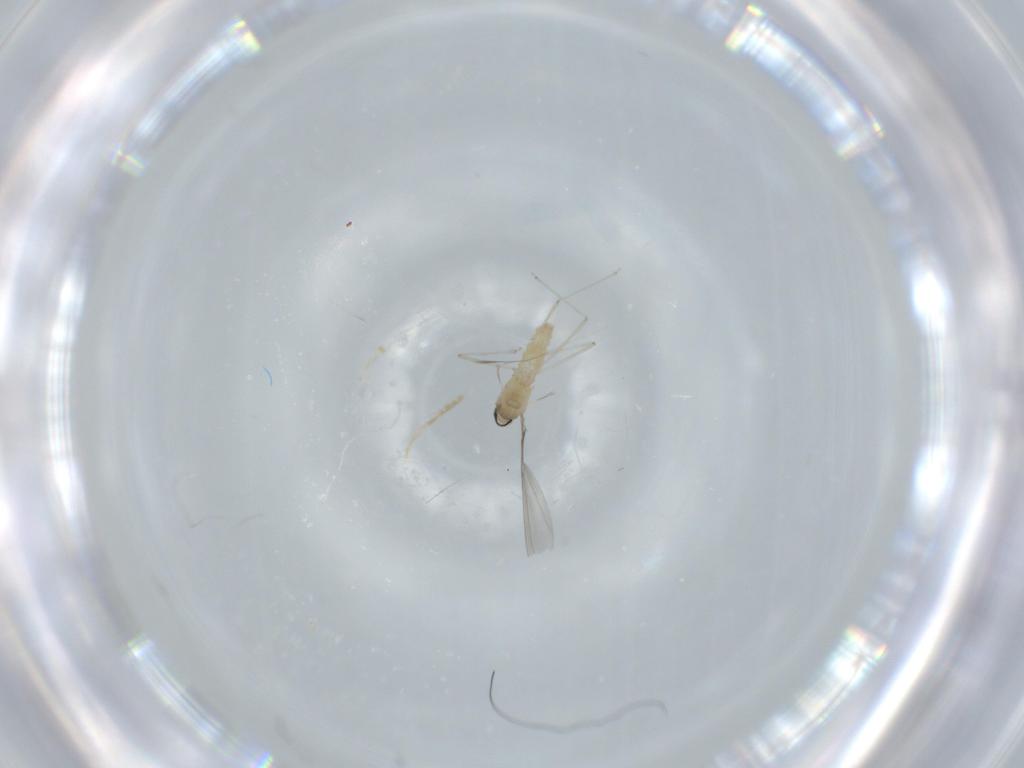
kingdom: Animalia
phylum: Arthropoda
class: Insecta
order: Diptera
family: Cecidomyiidae
